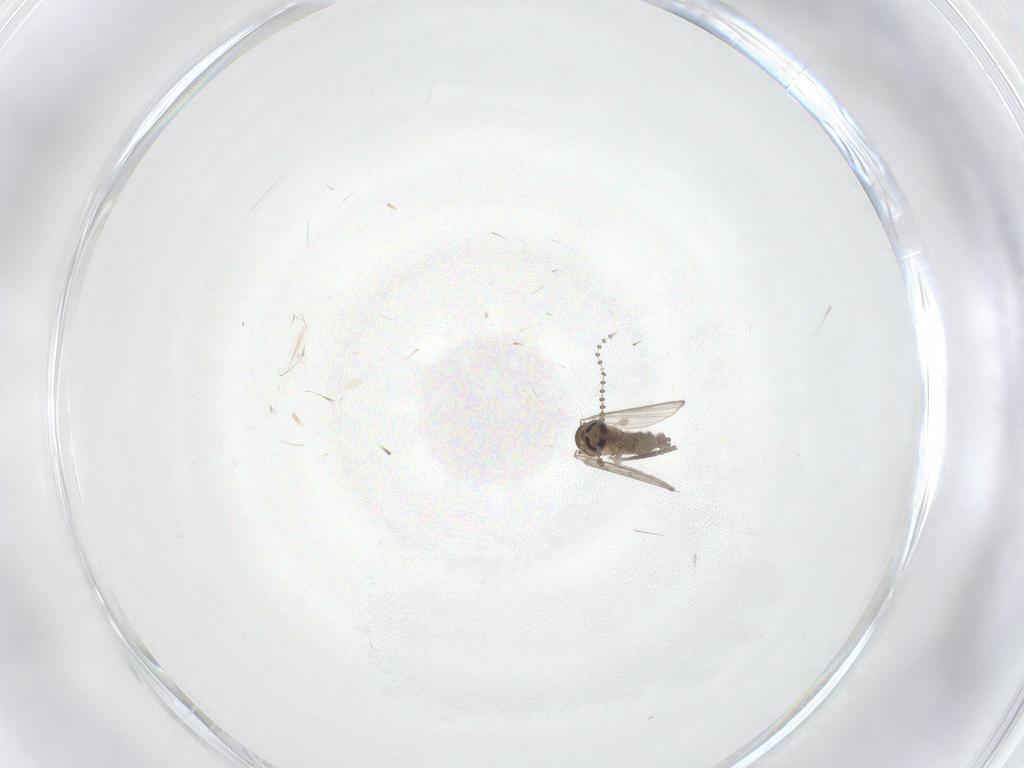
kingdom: Animalia
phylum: Arthropoda
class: Insecta
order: Diptera
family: Psychodidae
